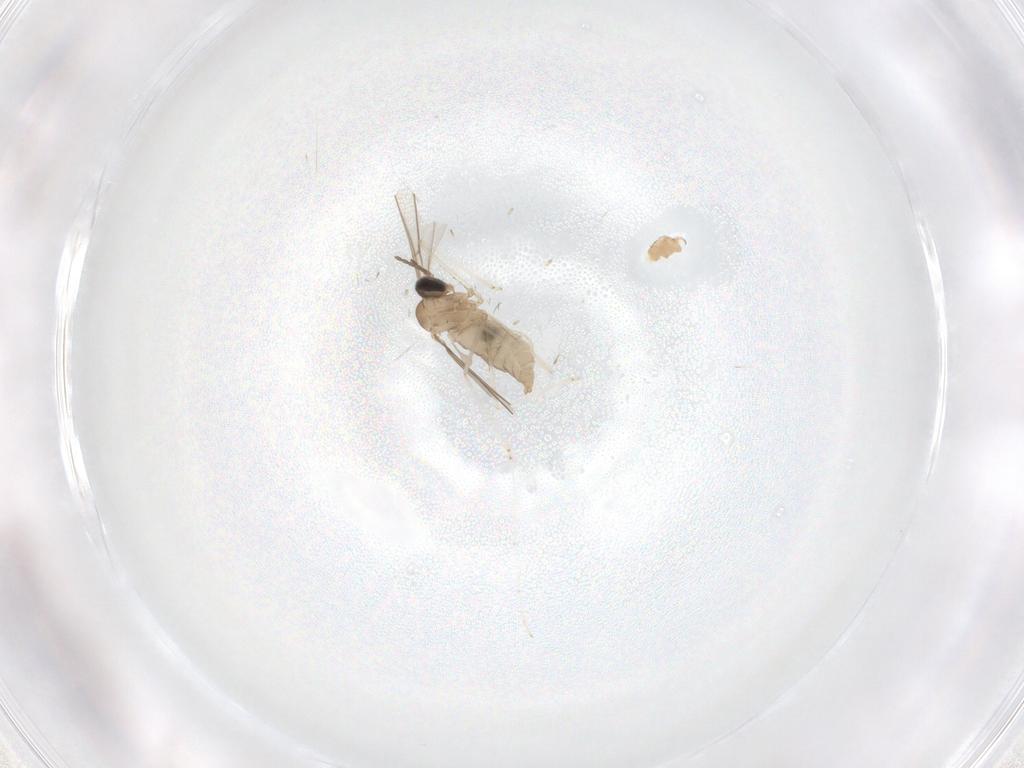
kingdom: Animalia
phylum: Arthropoda
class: Insecta
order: Diptera
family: Cecidomyiidae
